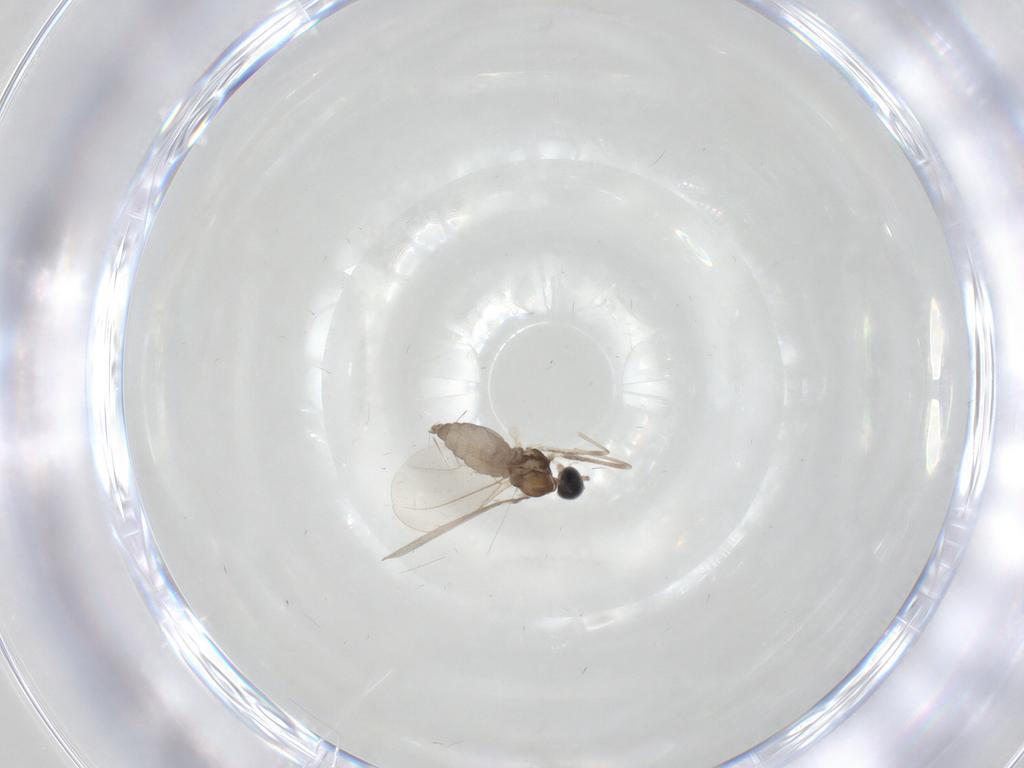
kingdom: Animalia
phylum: Arthropoda
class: Insecta
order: Diptera
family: Cecidomyiidae
